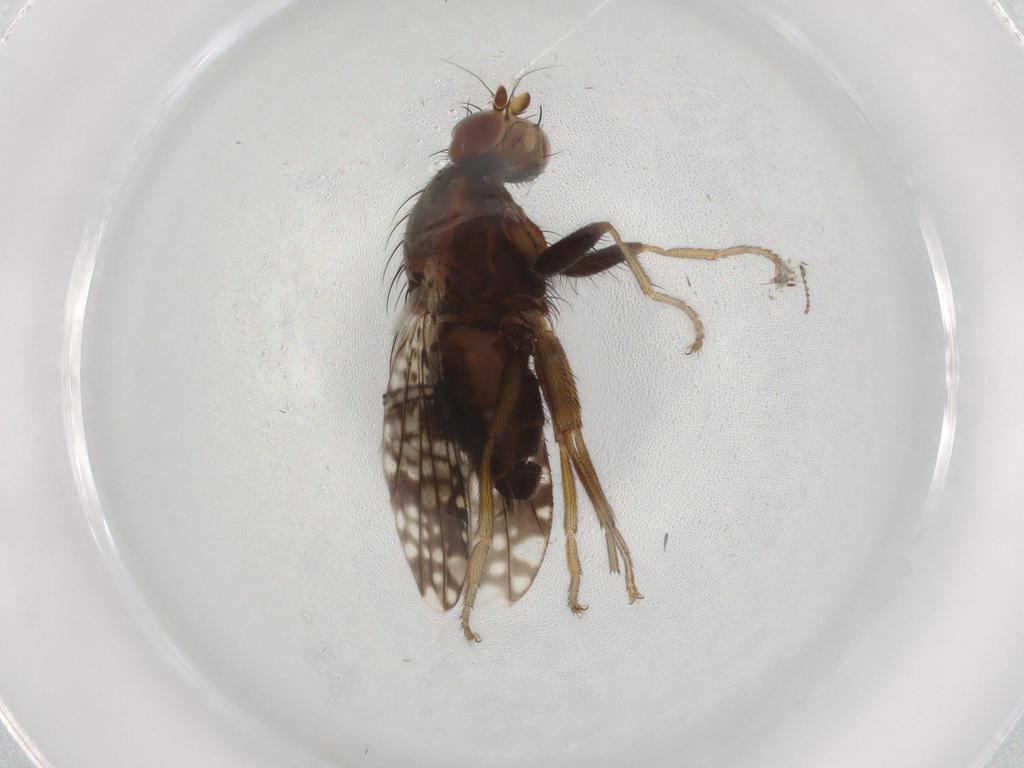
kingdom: Animalia
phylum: Arthropoda
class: Insecta
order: Diptera
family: Tephritidae
